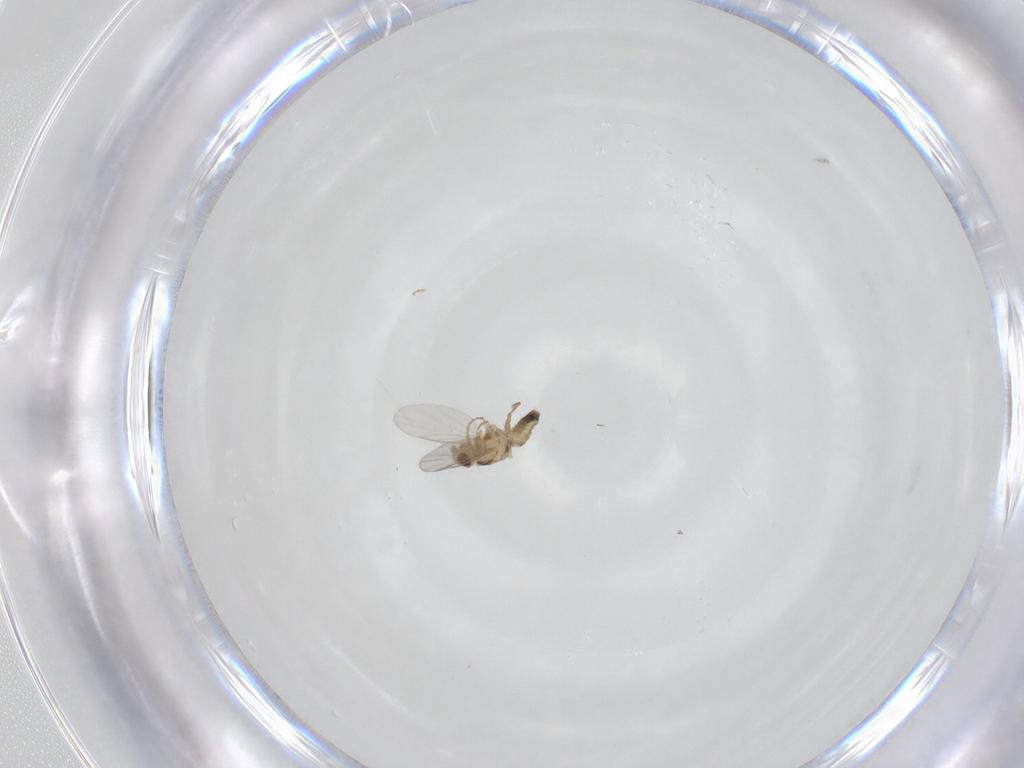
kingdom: Animalia
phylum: Arthropoda
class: Insecta
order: Diptera
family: Agromyzidae
